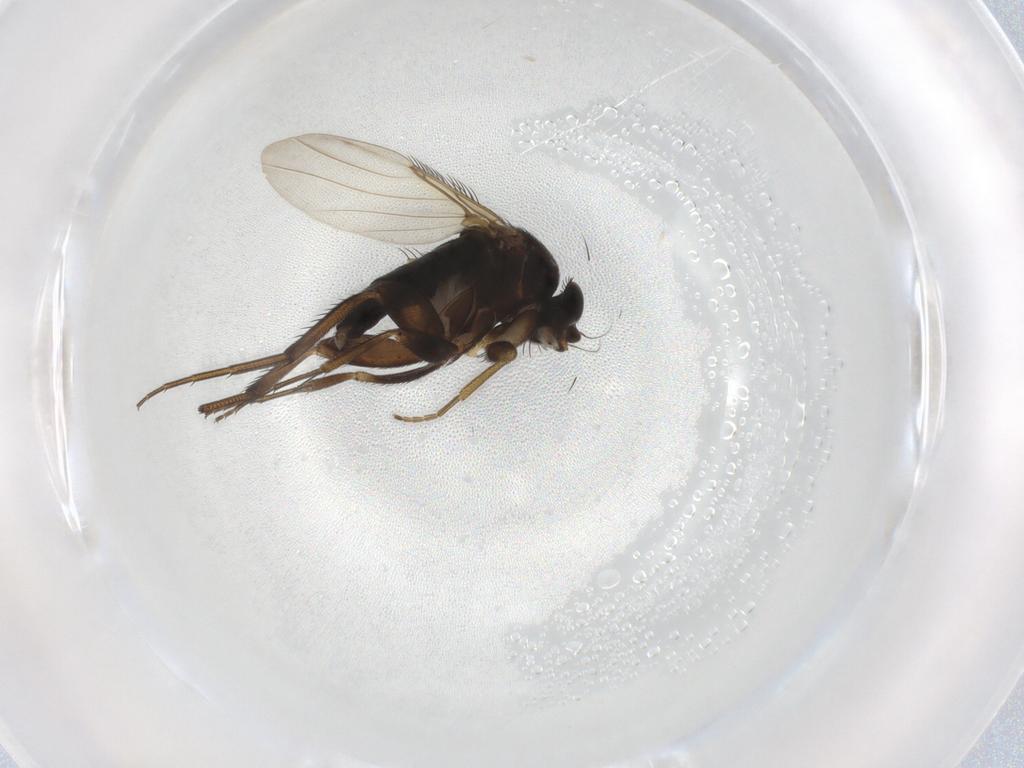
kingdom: Animalia
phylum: Arthropoda
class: Insecta
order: Diptera
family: Phoridae
